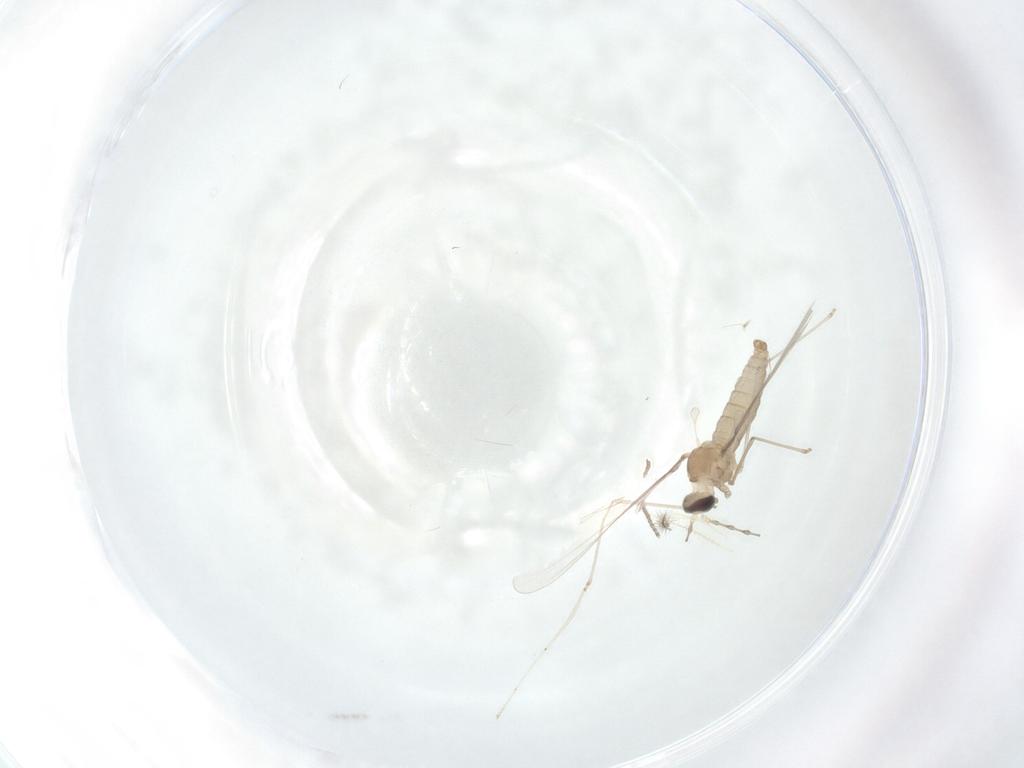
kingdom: Animalia
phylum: Arthropoda
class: Insecta
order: Diptera
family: Cecidomyiidae
